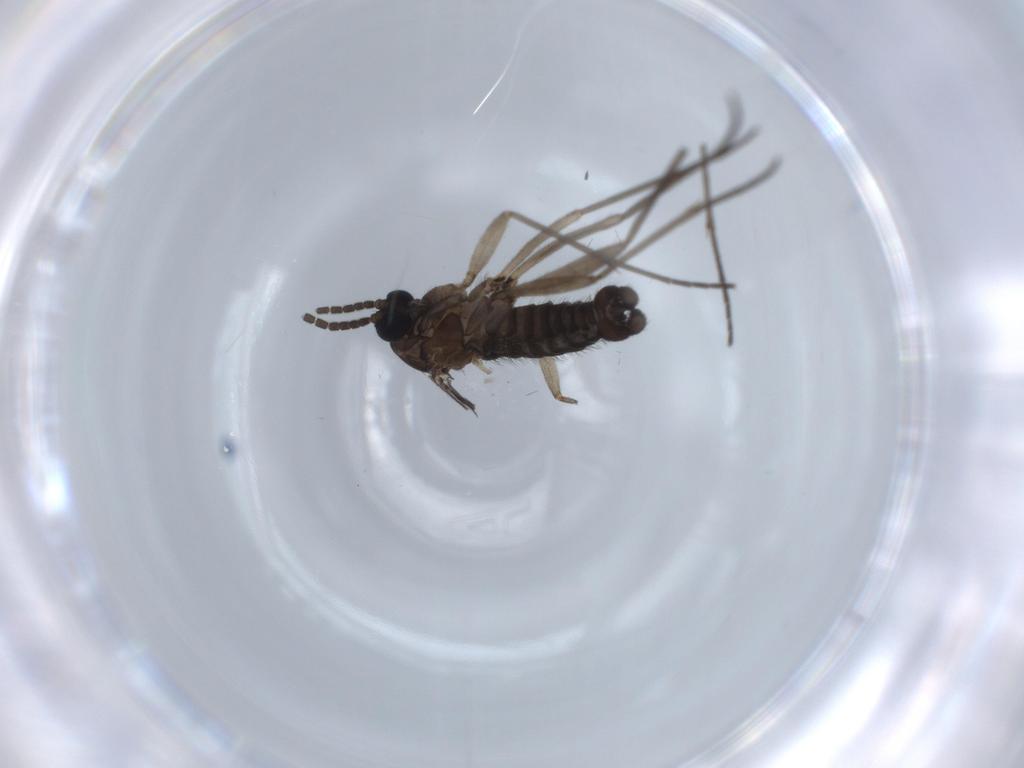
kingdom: Animalia
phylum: Arthropoda
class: Insecta
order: Diptera
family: Sciaridae
